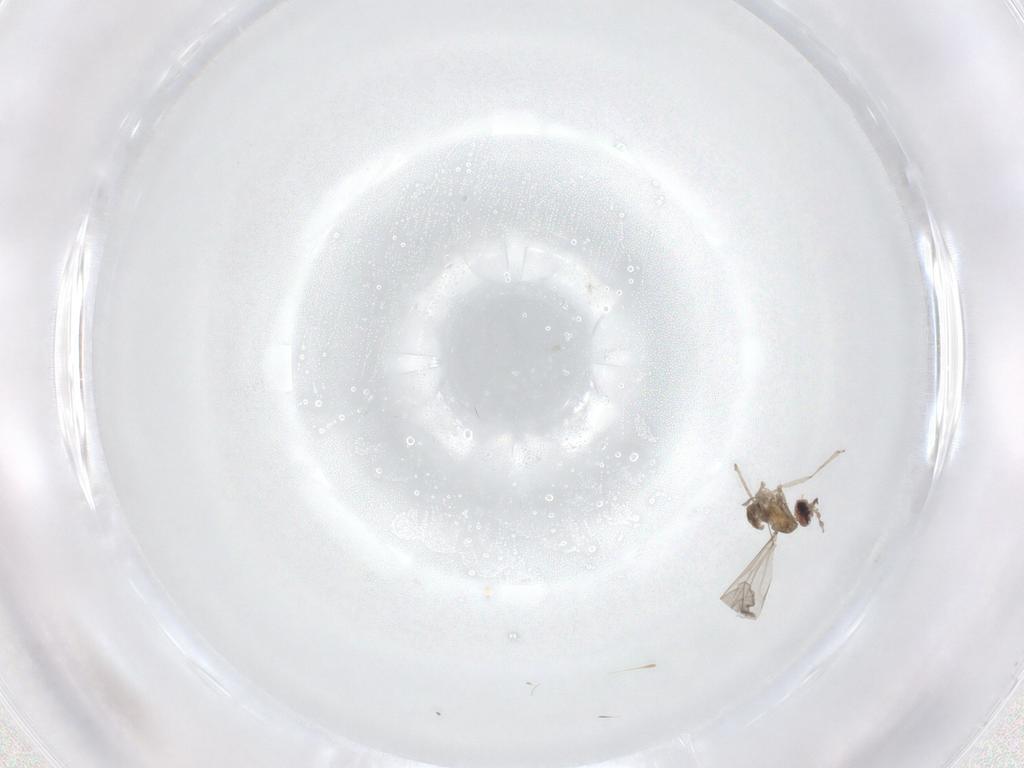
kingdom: Animalia
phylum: Arthropoda
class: Insecta
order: Diptera
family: Cecidomyiidae
